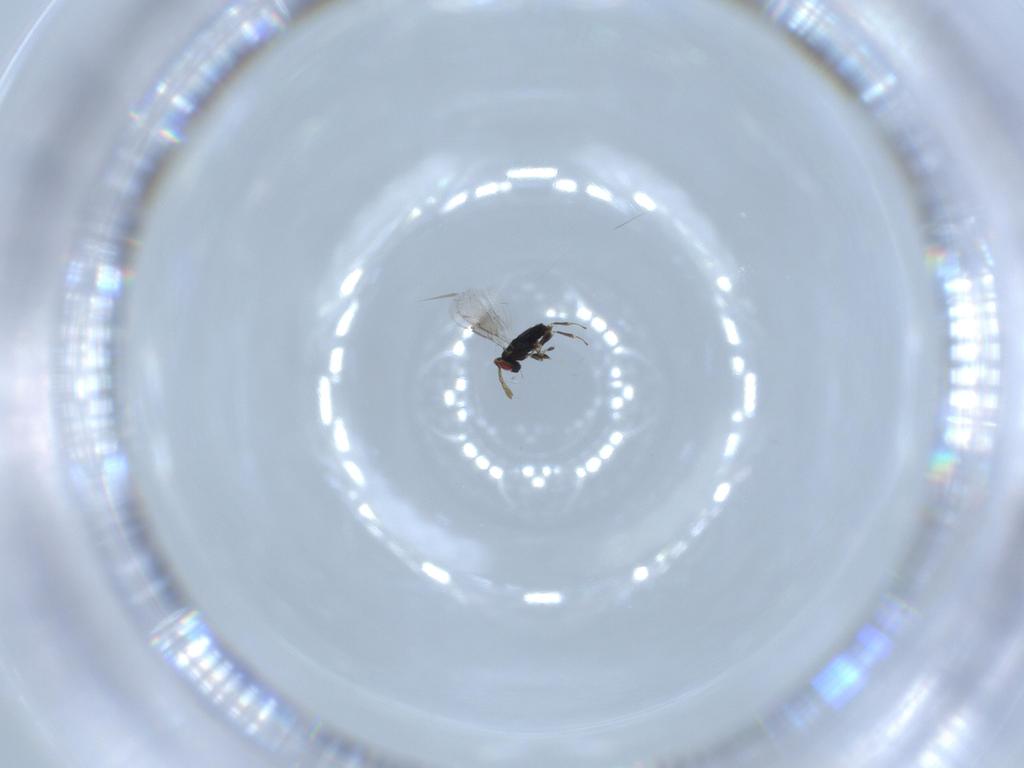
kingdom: Animalia
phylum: Arthropoda
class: Insecta
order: Hymenoptera
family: Azotidae
